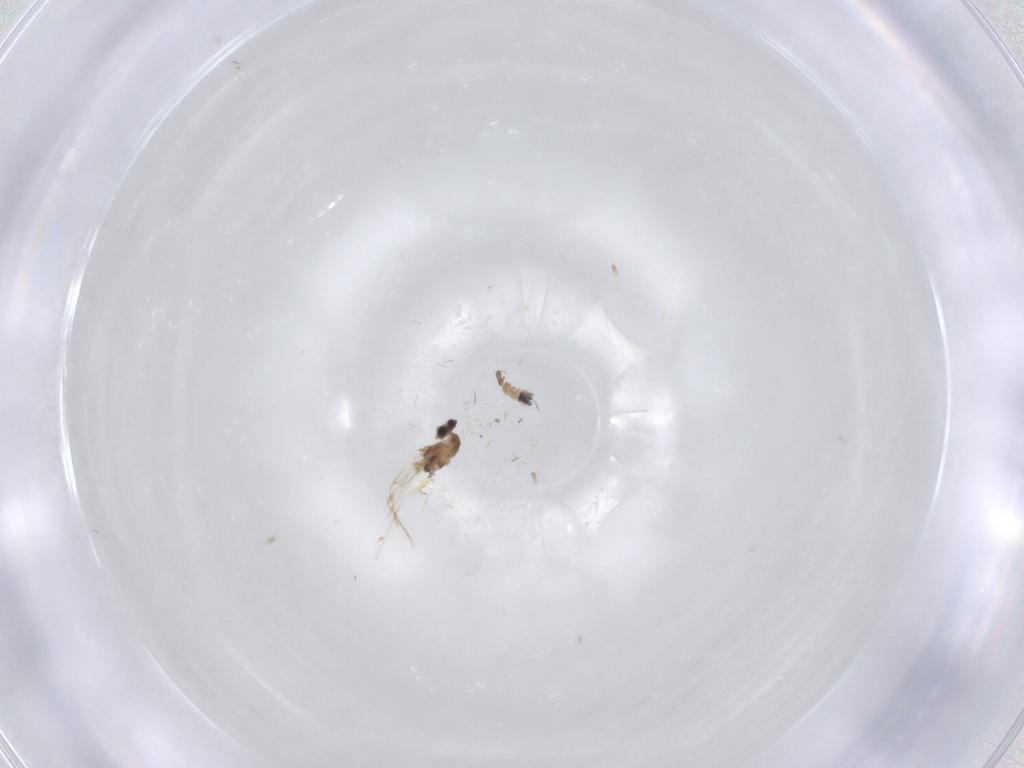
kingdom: Animalia
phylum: Arthropoda
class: Insecta
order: Diptera
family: Cecidomyiidae
